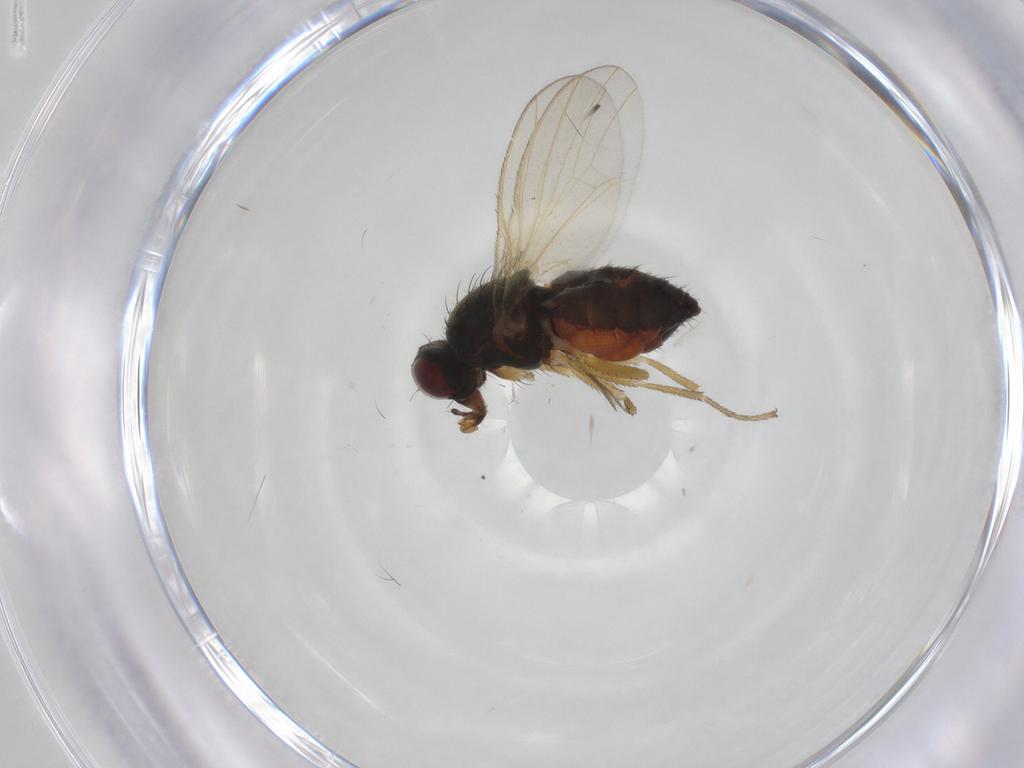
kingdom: Animalia
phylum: Arthropoda
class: Insecta
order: Diptera
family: Heleomyzidae
